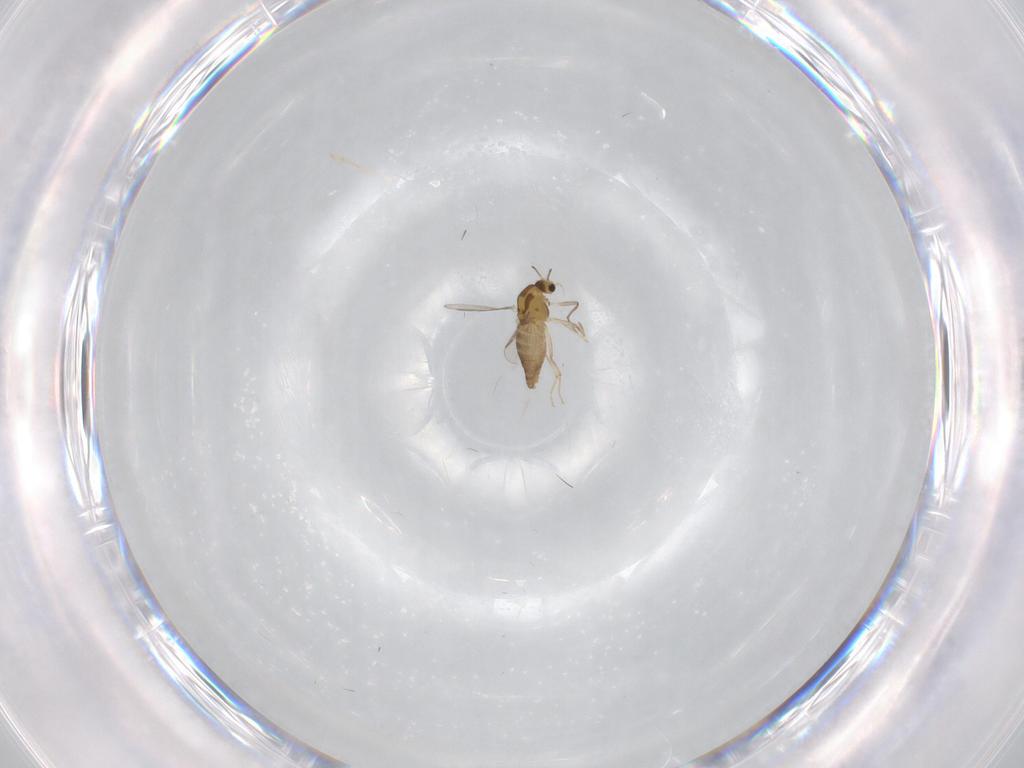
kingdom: Animalia
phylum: Arthropoda
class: Insecta
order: Diptera
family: Chironomidae
